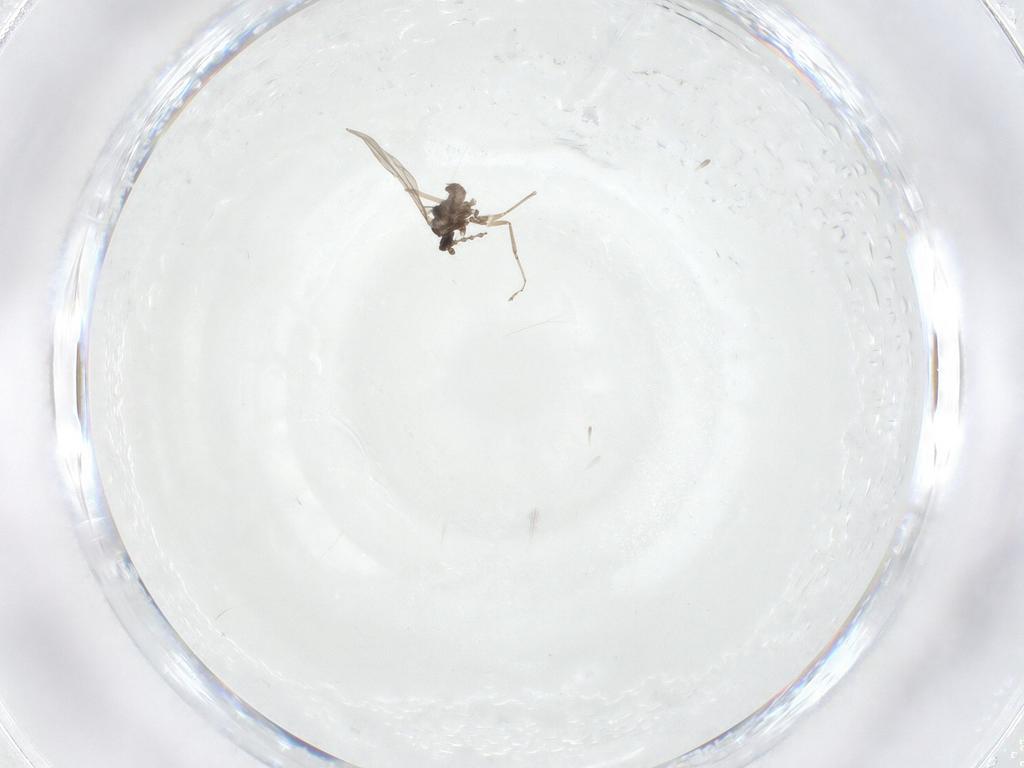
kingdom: Animalia
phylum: Arthropoda
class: Insecta
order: Diptera
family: Cecidomyiidae
